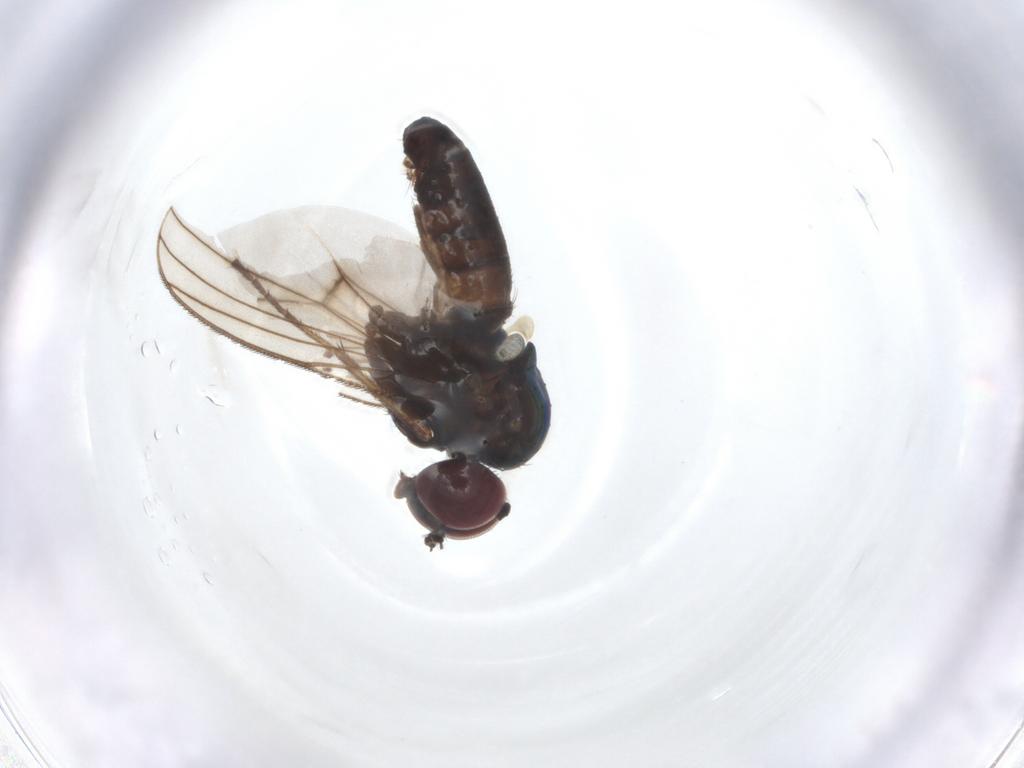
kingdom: Animalia
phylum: Arthropoda
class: Insecta
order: Diptera
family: Dolichopodidae
